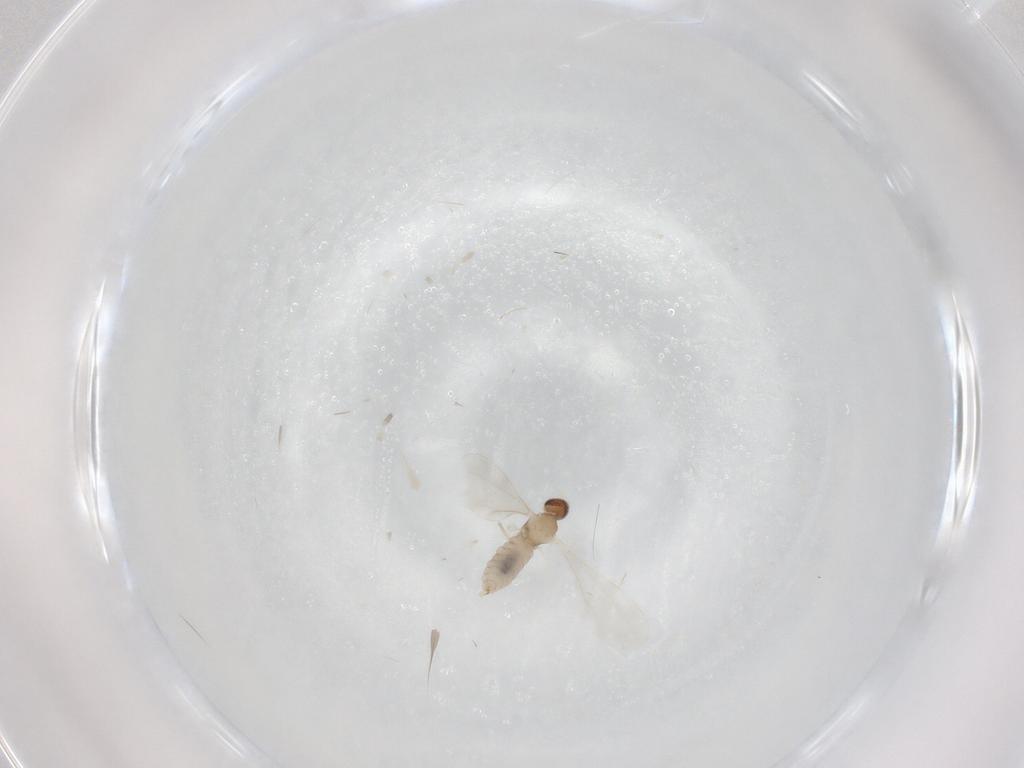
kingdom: Animalia
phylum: Arthropoda
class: Insecta
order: Diptera
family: Cecidomyiidae
